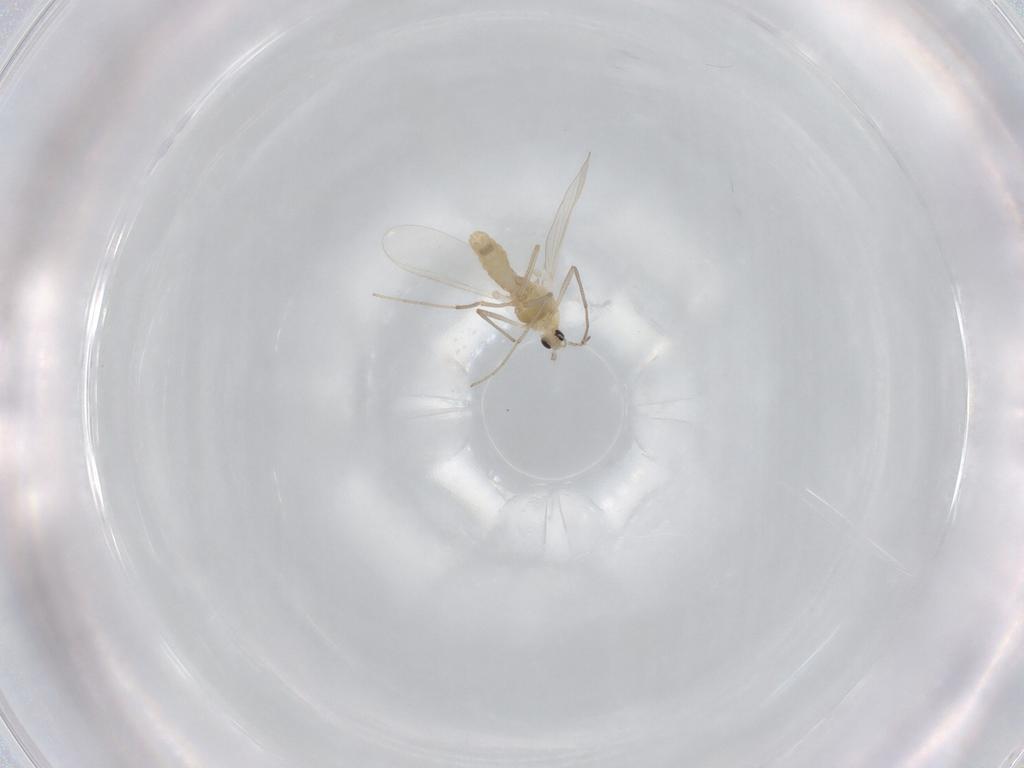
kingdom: Animalia
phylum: Arthropoda
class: Insecta
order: Diptera
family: Chironomidae
